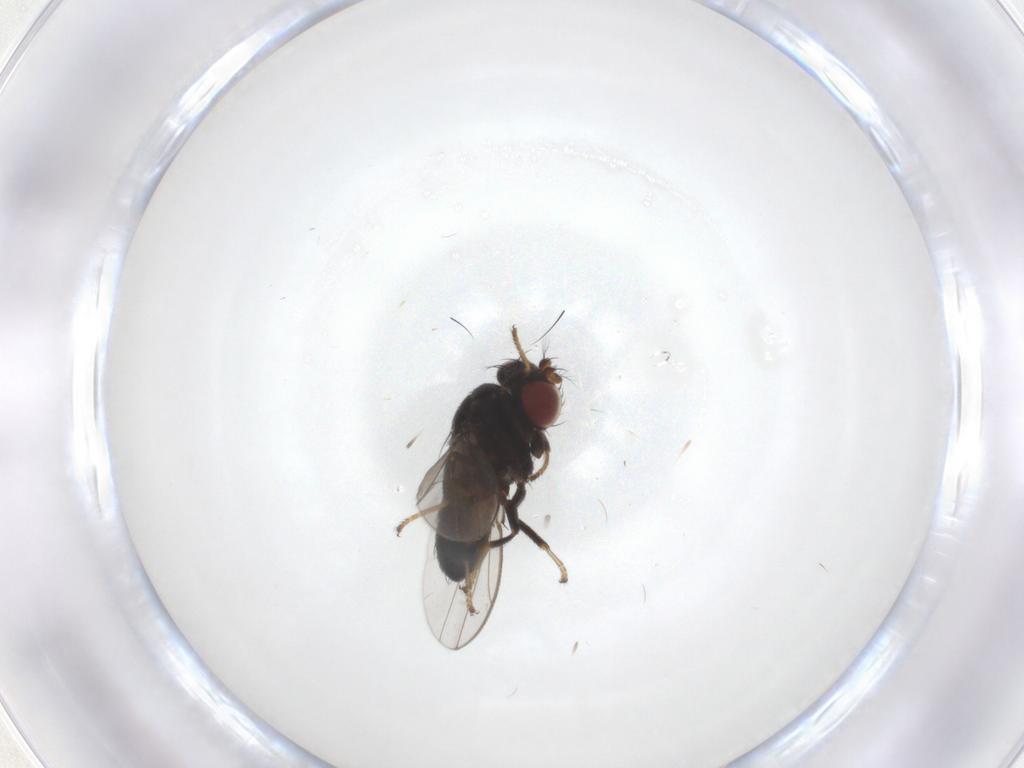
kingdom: Animalia
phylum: Arthropoda
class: Insecta
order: Diptera
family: Ephydridae
